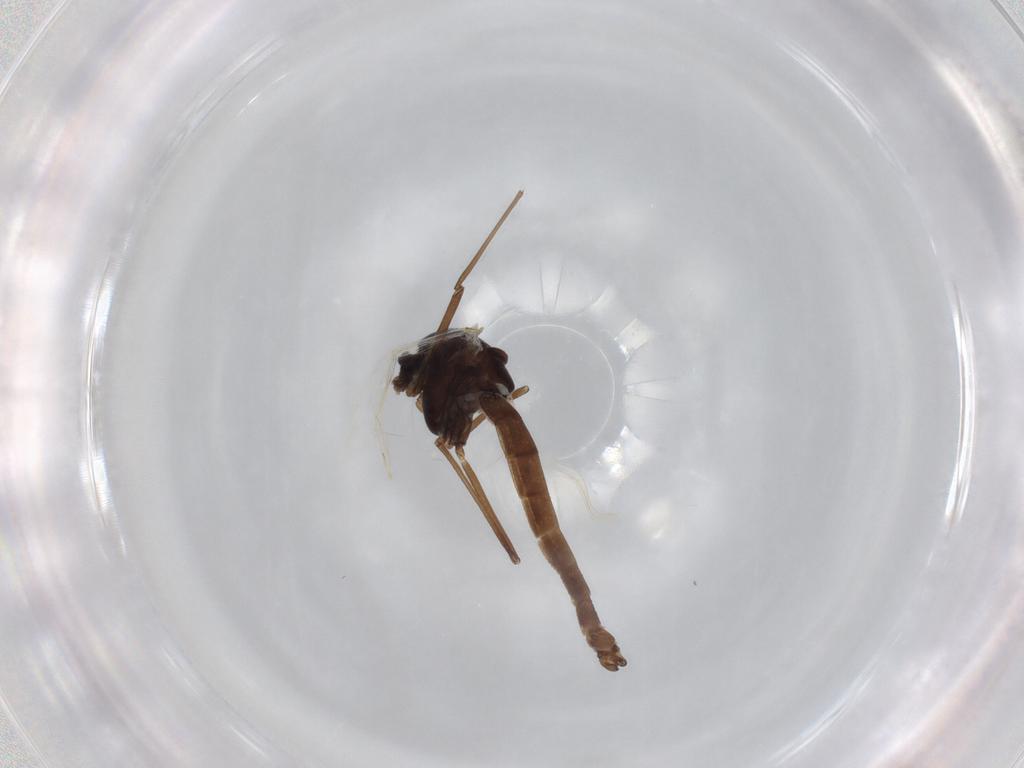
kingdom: Animalia
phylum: Arthropoda
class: Insecta
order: Diptera
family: Chironomidae
